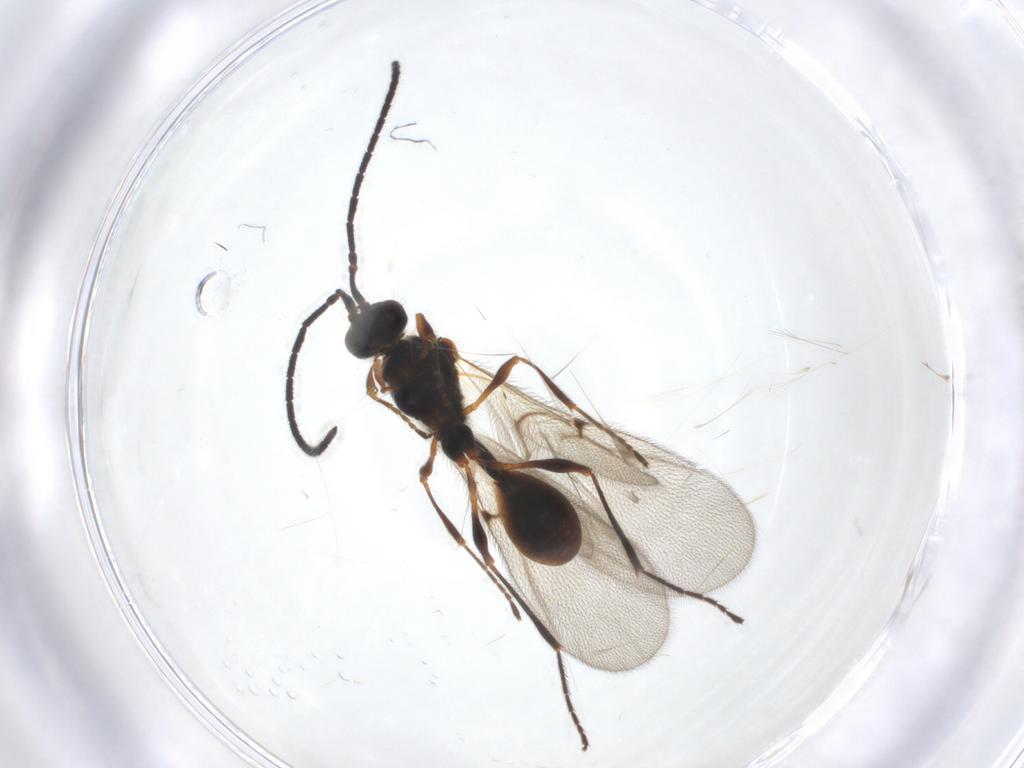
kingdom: Animalia
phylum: Arthropoda
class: Insecta
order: Hymenoptera
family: Diapriidae
